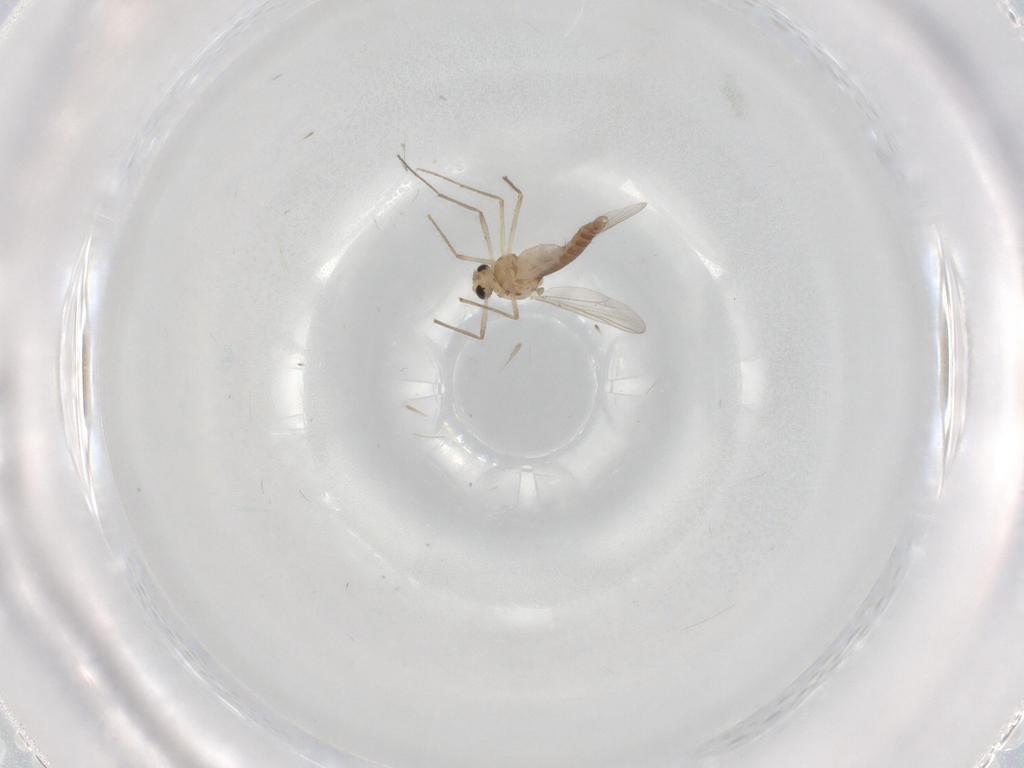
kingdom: Animalia
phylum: Arthropoda
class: Insecta
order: Diptera
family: Chironomidae
